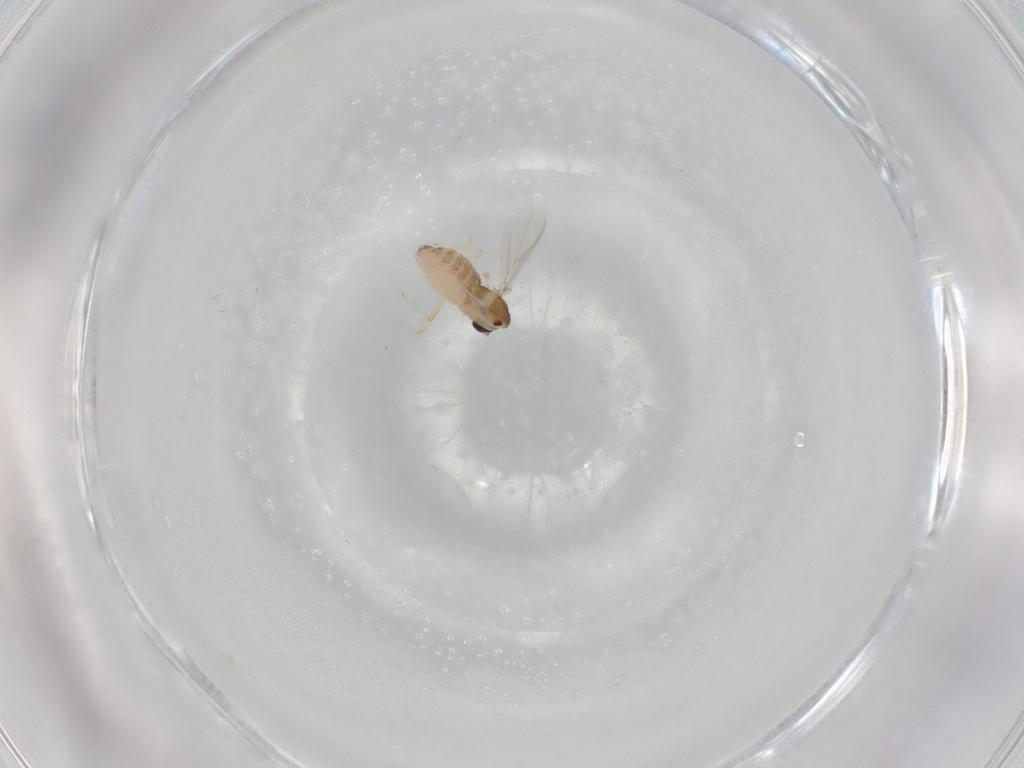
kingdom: Animalia
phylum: Arthropoda
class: Insecta
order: Diptera
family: Chironomidae
